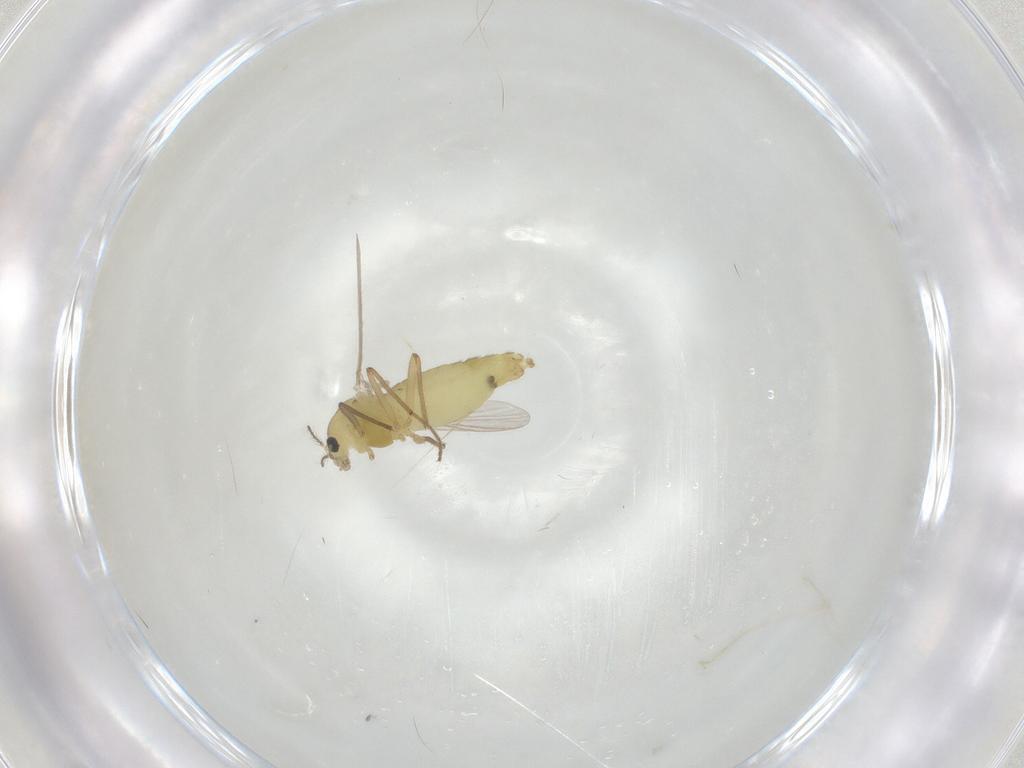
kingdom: Animalia
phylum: Arthropoda
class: Insecta
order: Diptera
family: Chironomidae
